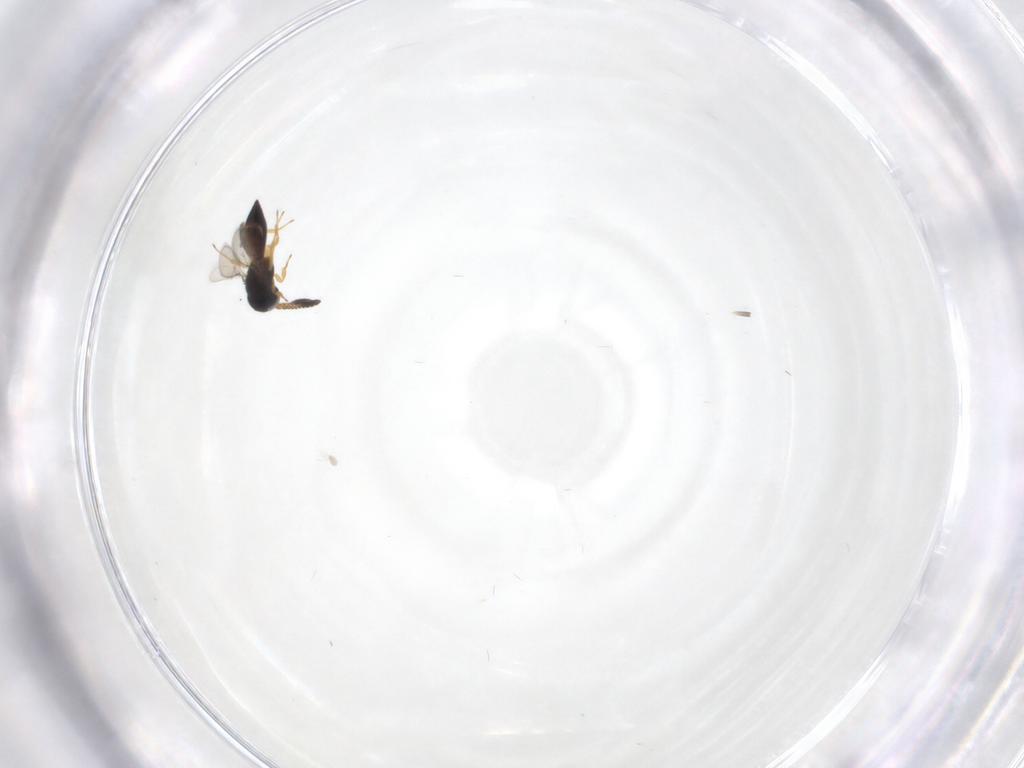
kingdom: Animalia
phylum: Arthropoda
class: Insecta
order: Hymenoptera
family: Scelionidae
